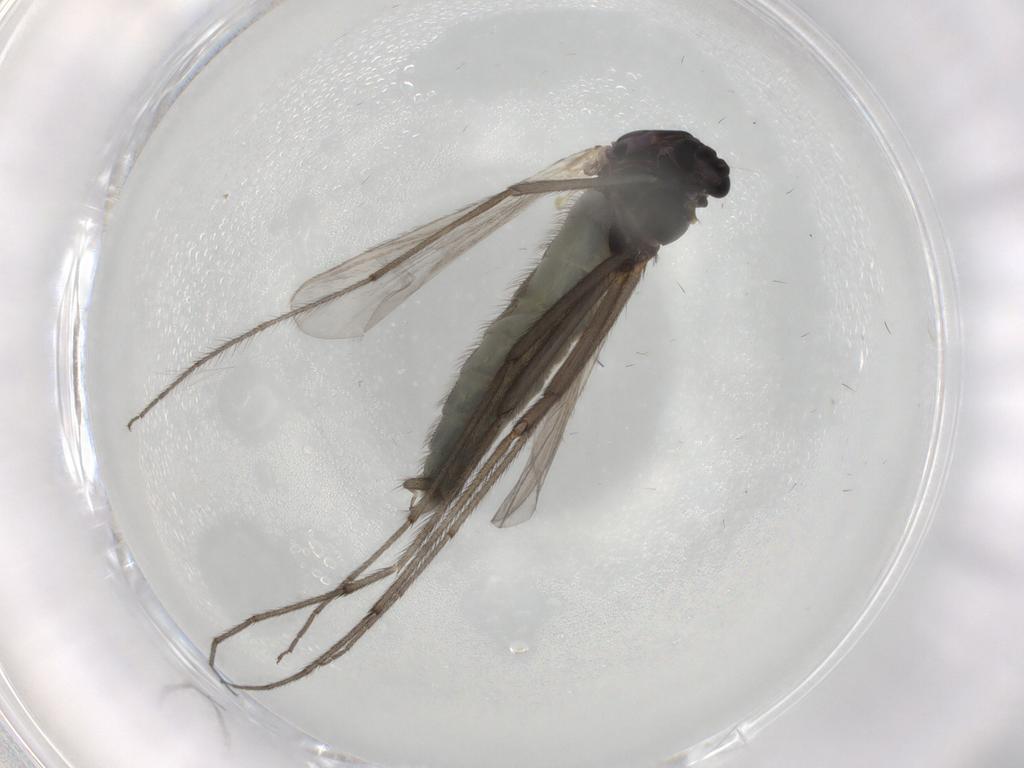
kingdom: Animalia
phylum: Arthropoda
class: Insecta
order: Diptera
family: Chironomidae
